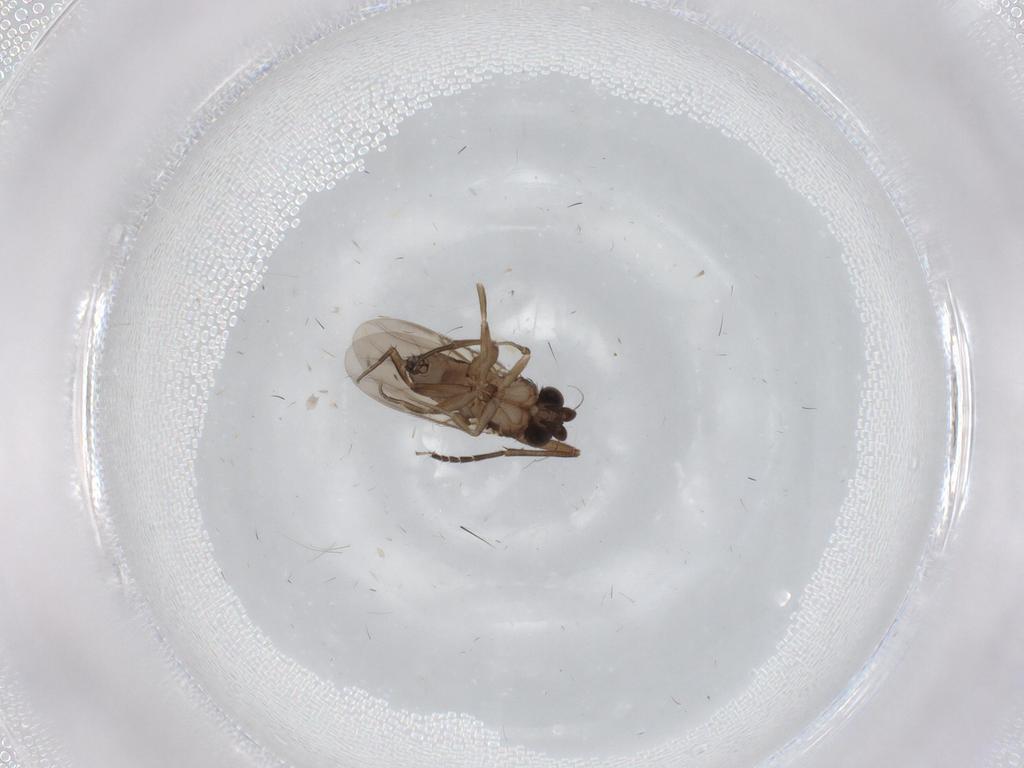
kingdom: Animalia
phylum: Arthropoda
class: Insecta
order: Diptera
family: Phoridae
